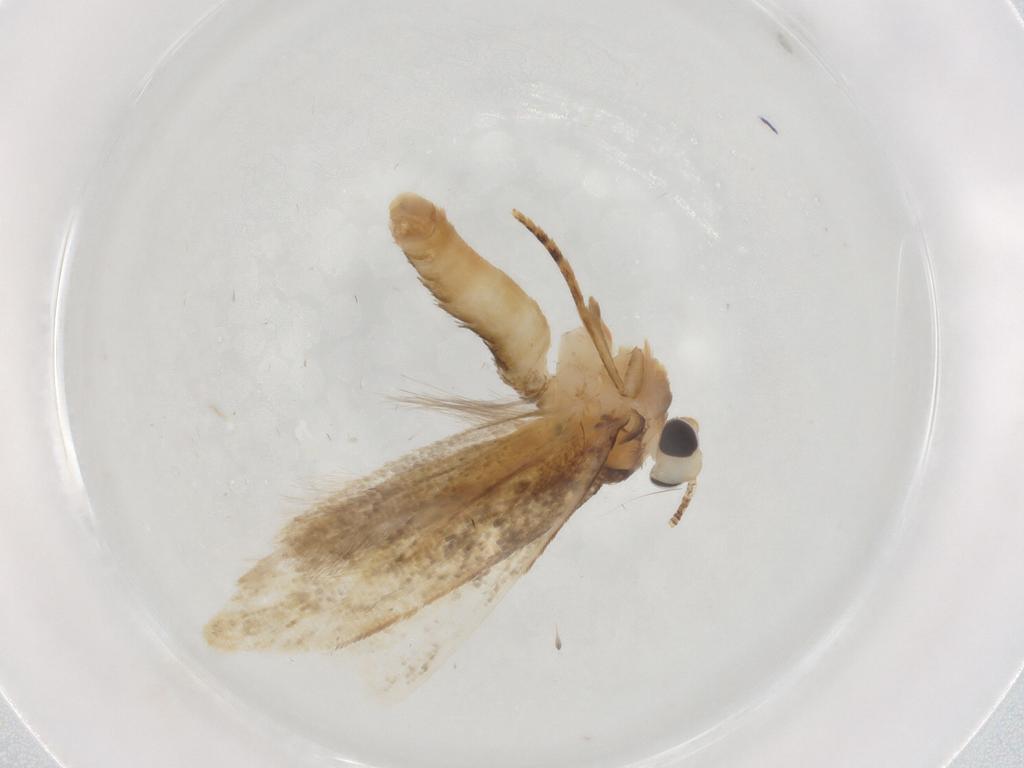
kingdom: Animalia
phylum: Arthropoda
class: Insecta
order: Lepidoptera
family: Tineidae
